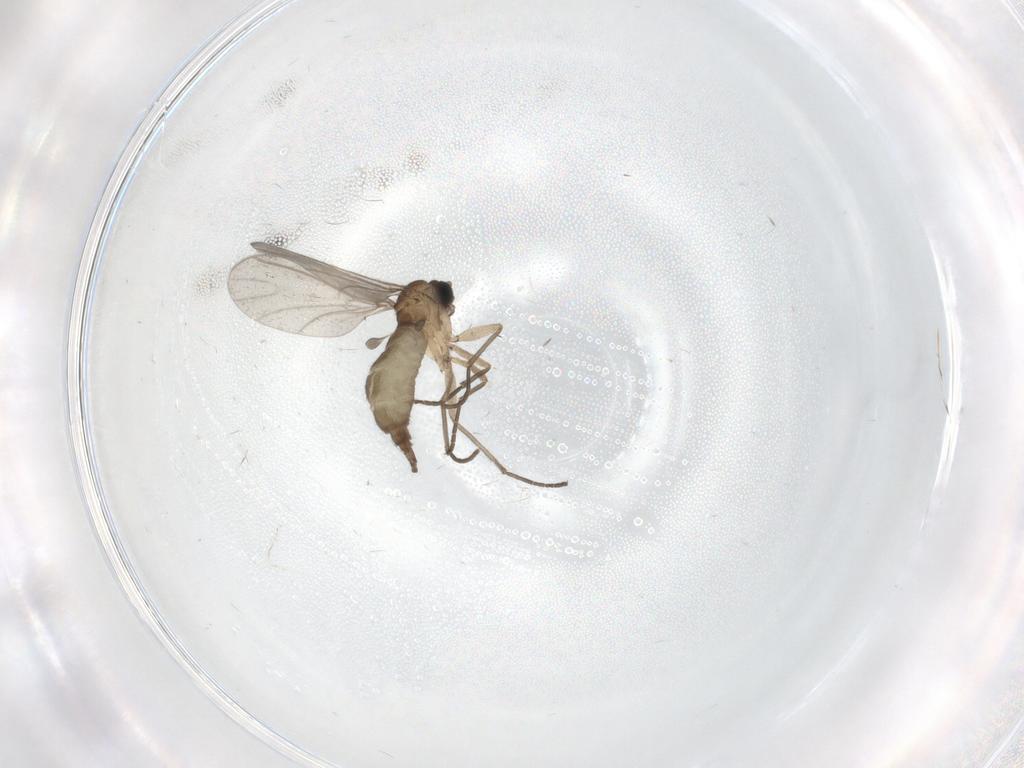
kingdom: Animalia
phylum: Arthropoda
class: Insecta
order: Diptera
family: Sciaridae
